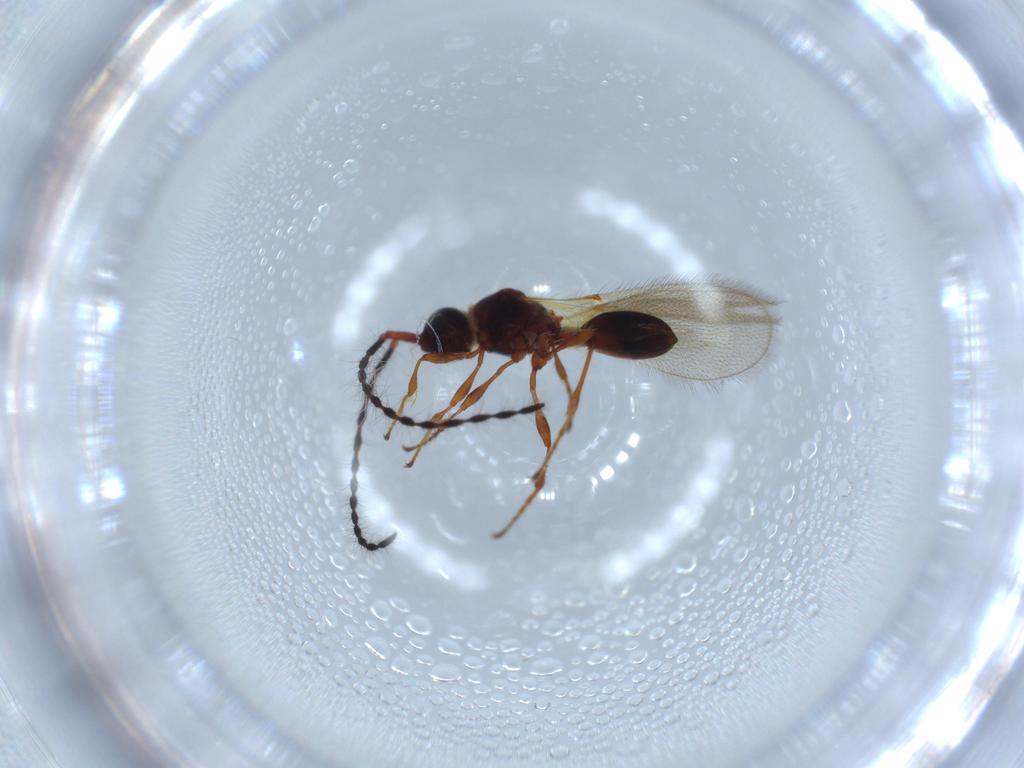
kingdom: Animalia
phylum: Arthropoda
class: Insecta
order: Hymenoptera
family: Diapriidae
